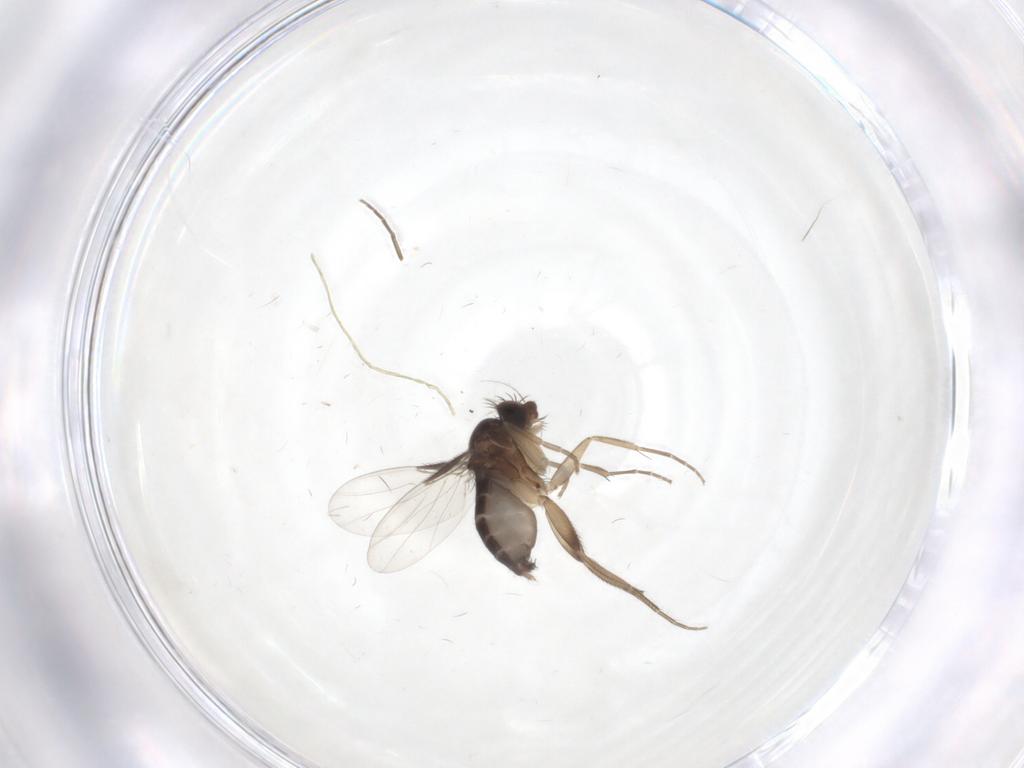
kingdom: Animalia
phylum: Arthropoda
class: Insecta
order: Diptera
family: Phoridae
